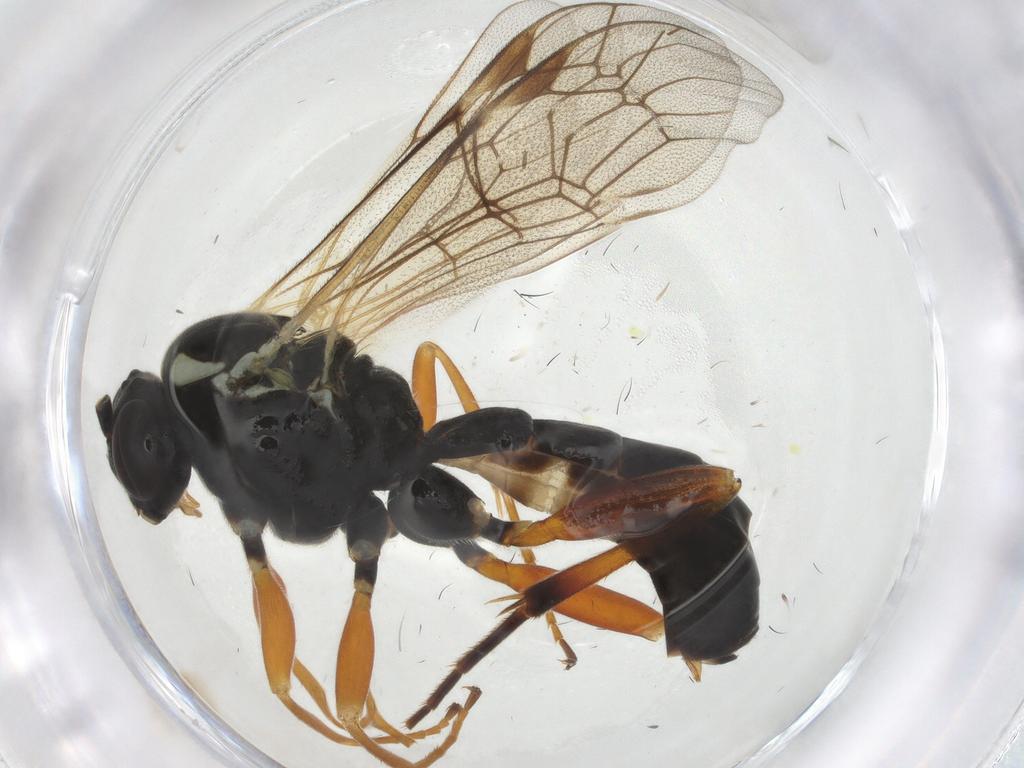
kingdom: Animalia
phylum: Arthropoda
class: Insecta
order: Hymenoptera
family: Ichneumonidae
